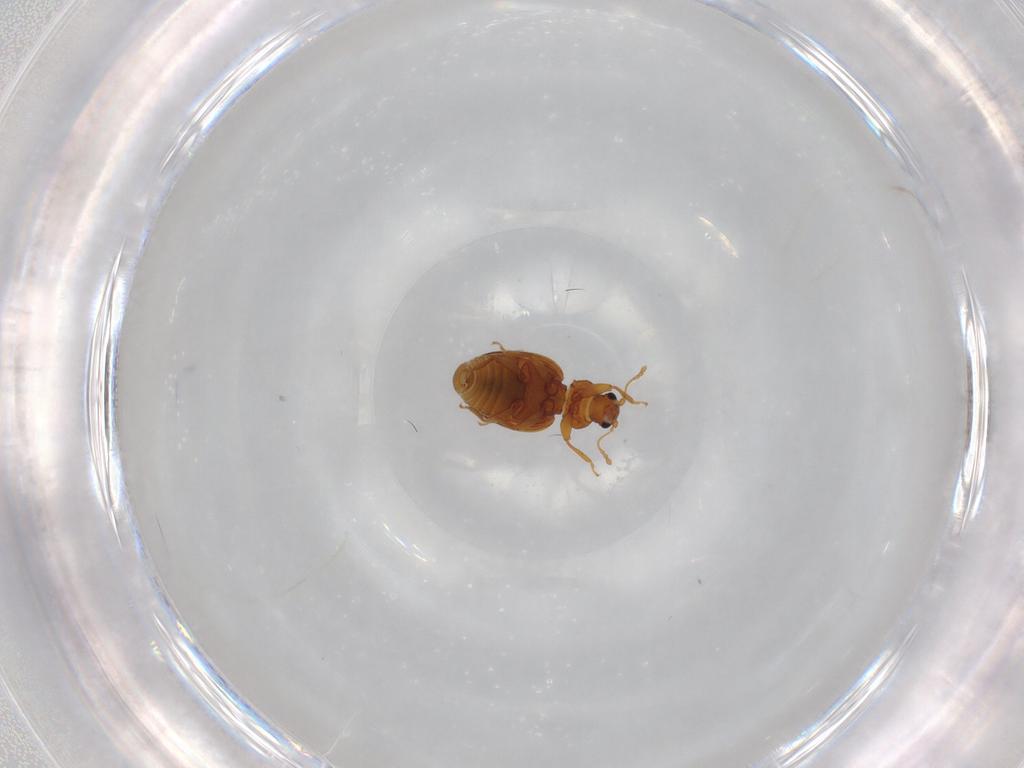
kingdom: Animalia
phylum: Arthropoda
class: Insecta
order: Coleoptera
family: Latridiidae
